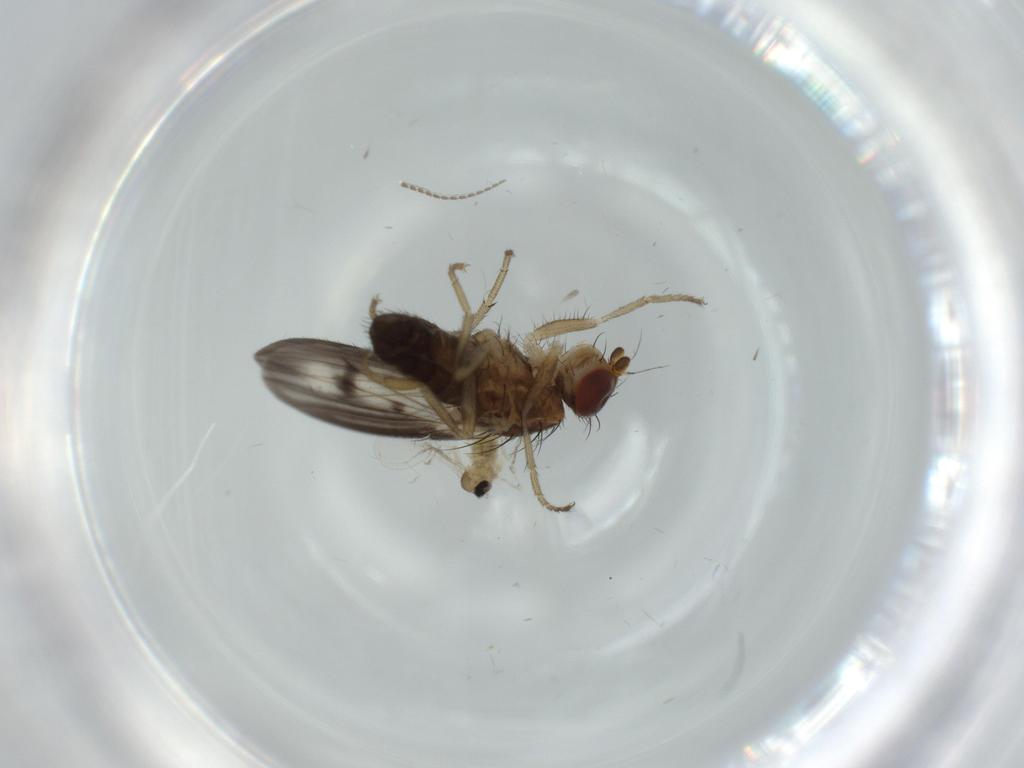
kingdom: Animalia
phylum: Arthropoda
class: Insecta
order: Diptera
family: Cecidomyiidae
